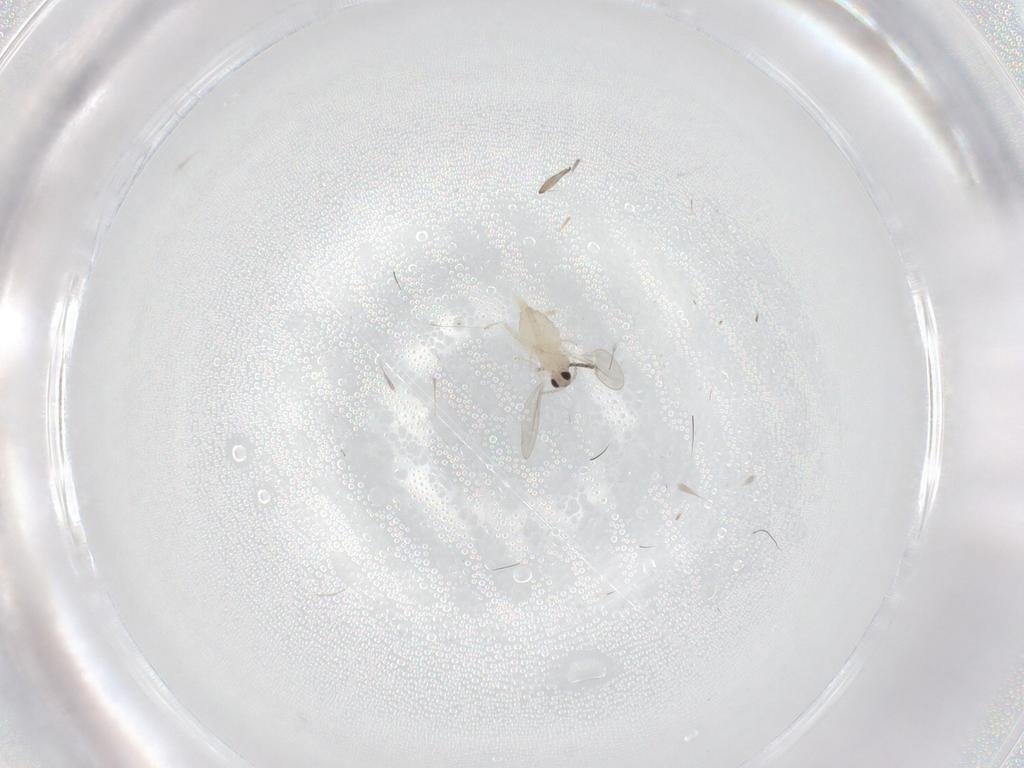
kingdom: Animalia
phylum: Arthropoda
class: Insecta
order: Diptera
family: Cecidomyiidae
